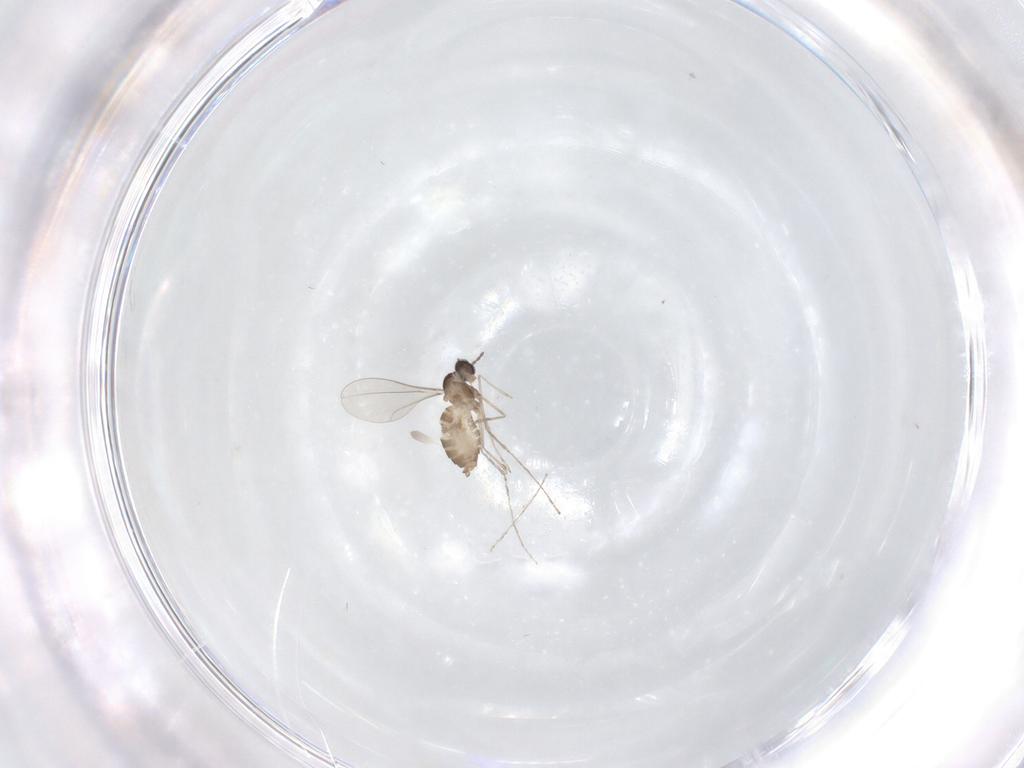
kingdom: Animalia
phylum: Arthropoda
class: Insecta
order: Diptera
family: Cecidomyiidae
